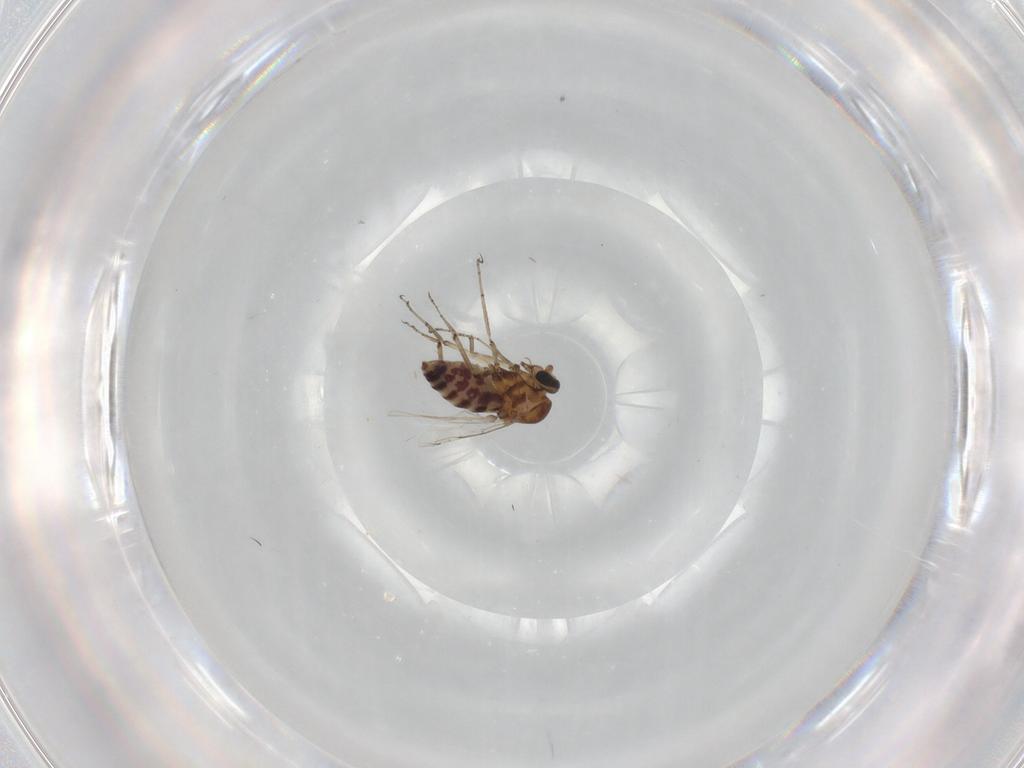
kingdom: Animalia
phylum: Arthropoda
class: Insecta
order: Diptera
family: Ceratopogonidae
